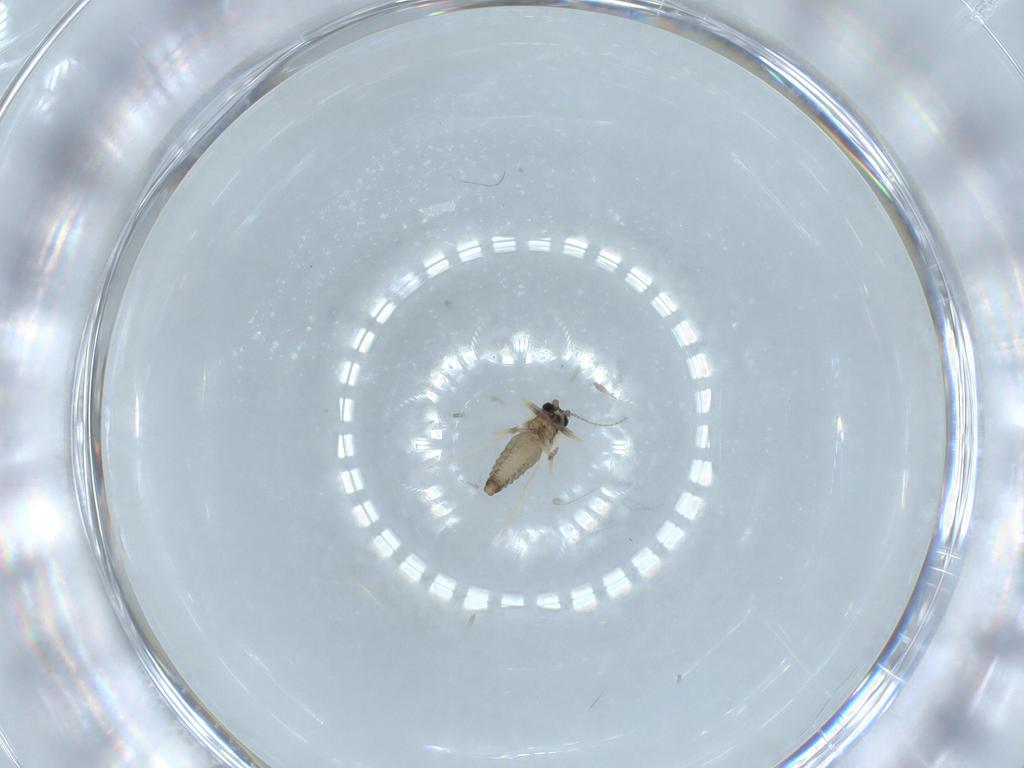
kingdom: Animalia
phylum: Arthropoda
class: Insecta
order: Diptera
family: Ceratopogonidae
